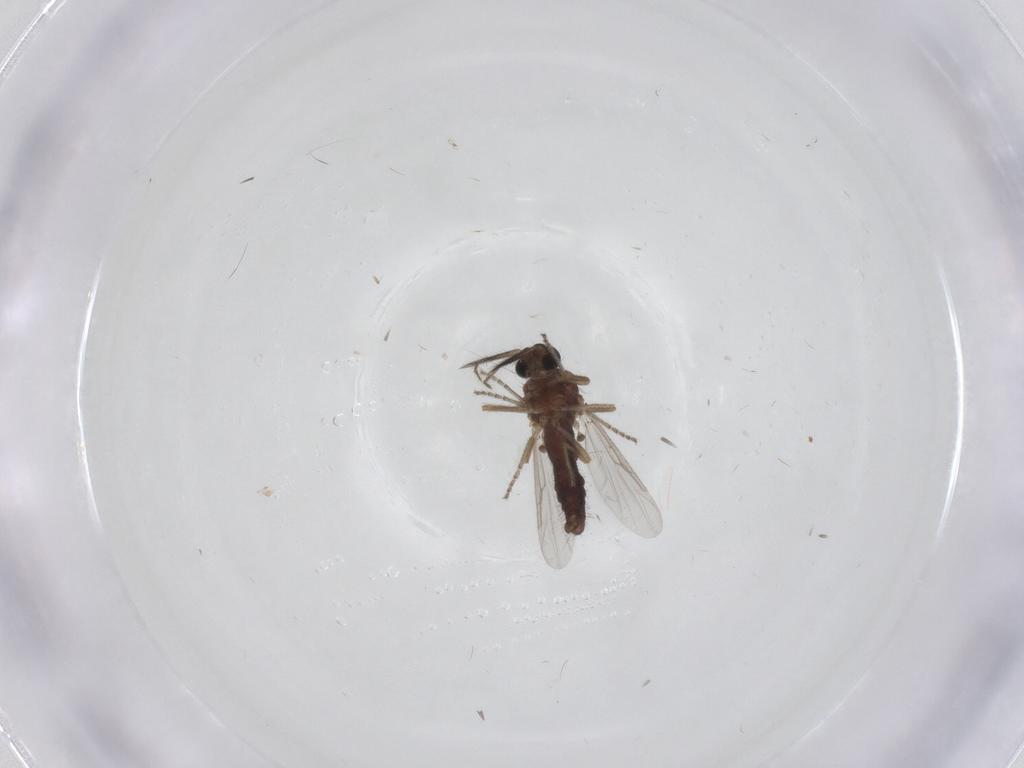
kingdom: Animalia
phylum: Arthropoda
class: Insecta
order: Diptera
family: Ceratopogonidae
